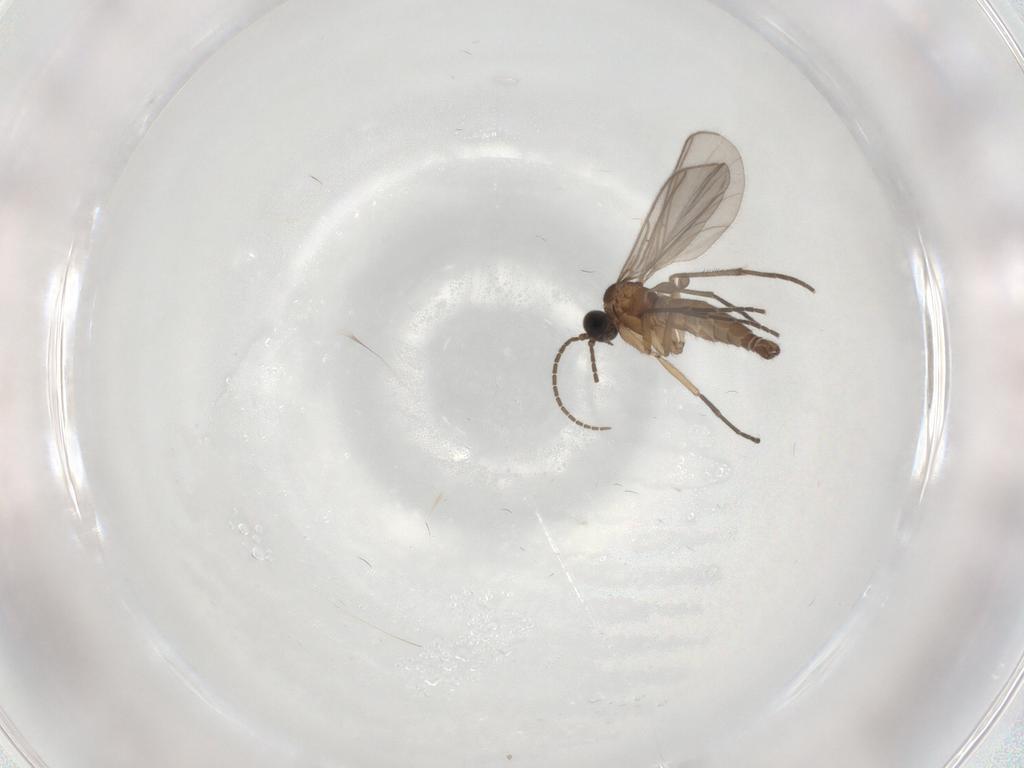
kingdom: Animalia
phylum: Arthropoda
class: Insecta
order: Diptera
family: Sciaridae
